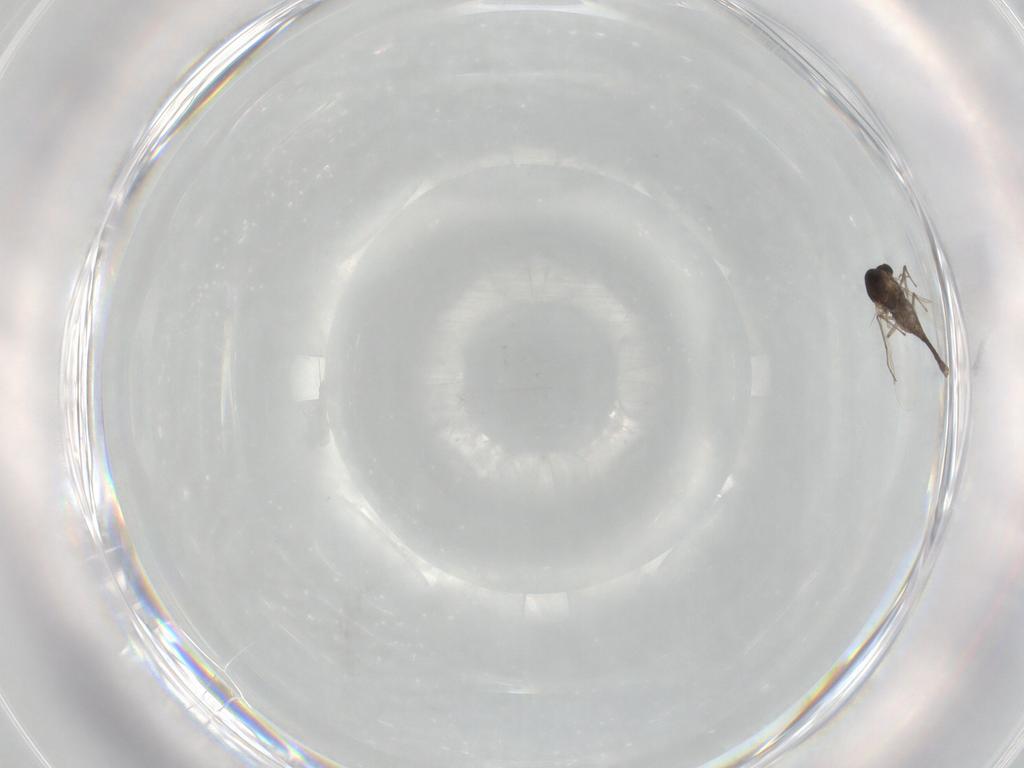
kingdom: Animalia
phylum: Arthropoda
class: Insecta
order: Diptera
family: Chironomidae
